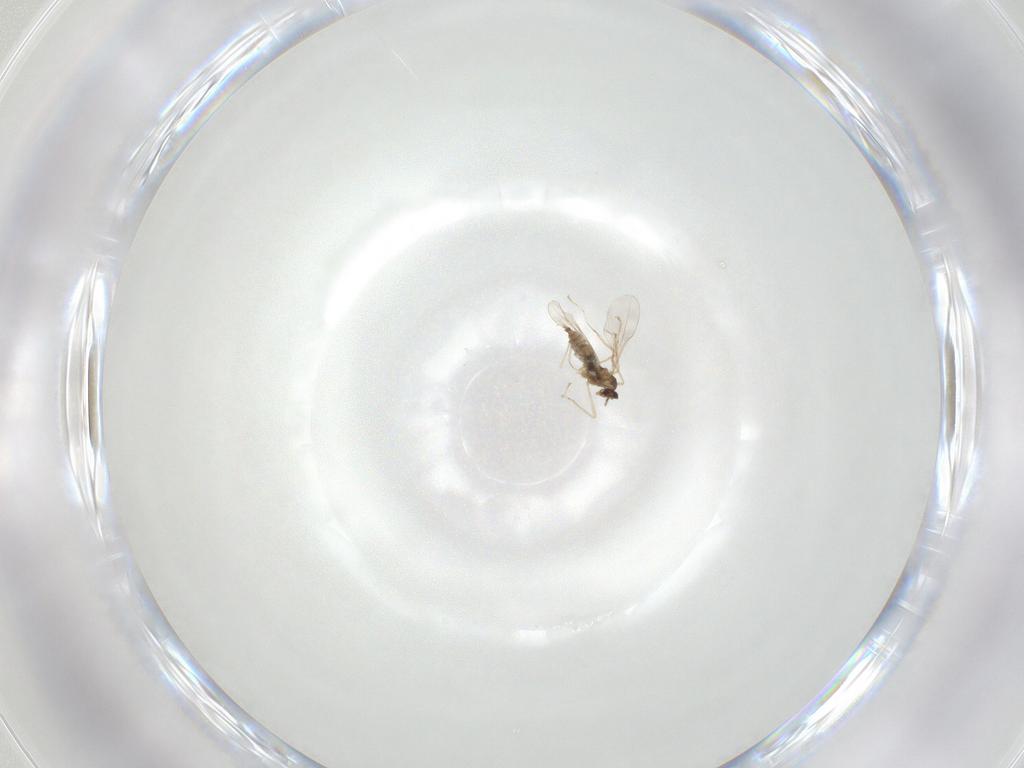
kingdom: Animalia
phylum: Arthropoda
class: Insecta
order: Diptera
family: Cecidomyiidae
